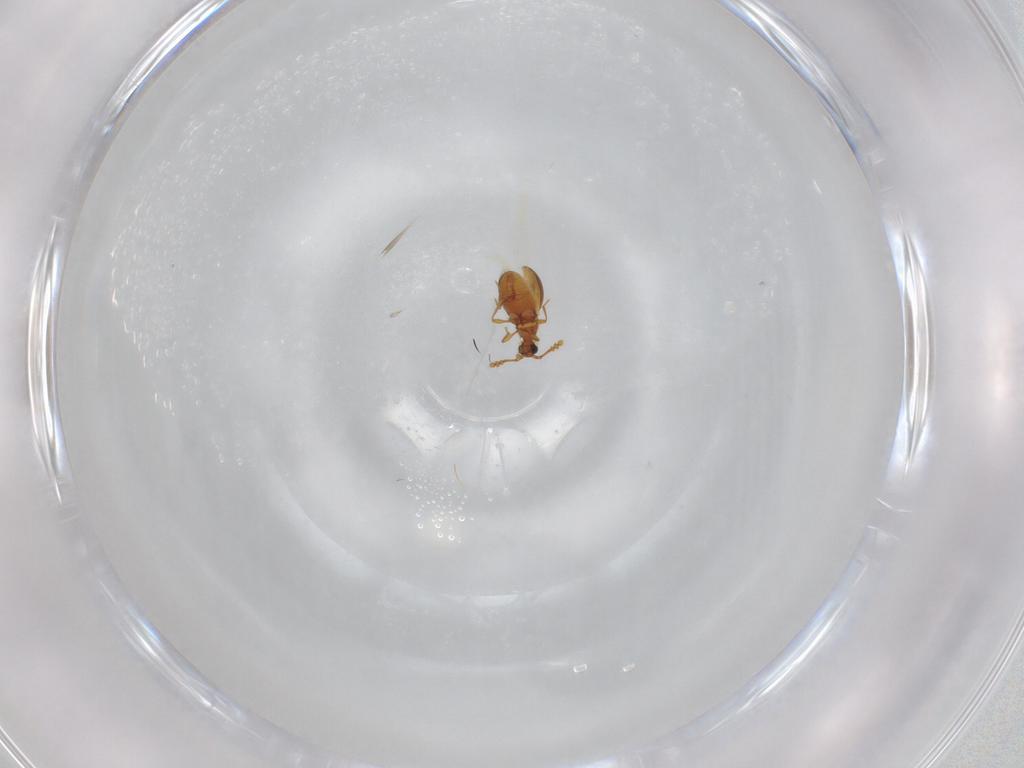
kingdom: Animalia
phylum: Arthropoda
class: Insecta
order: Coleoptera
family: Staphylinidae
